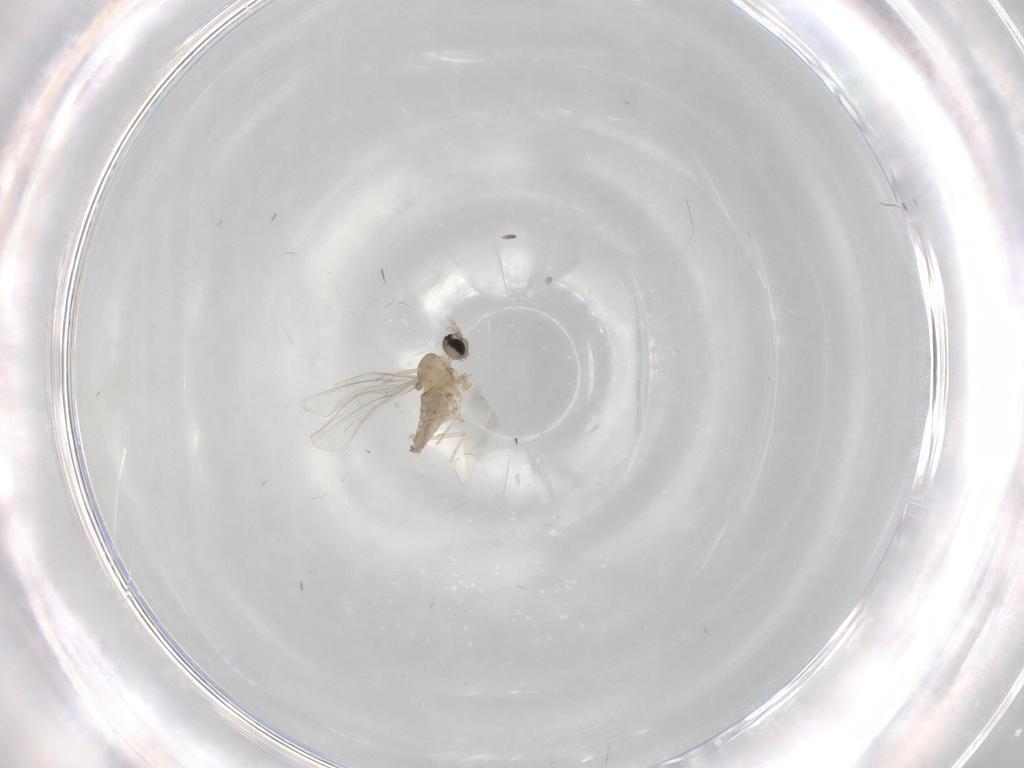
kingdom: Animalia
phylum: Arthropoda
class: Insecta
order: Diptera
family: Cecidomyiidae
